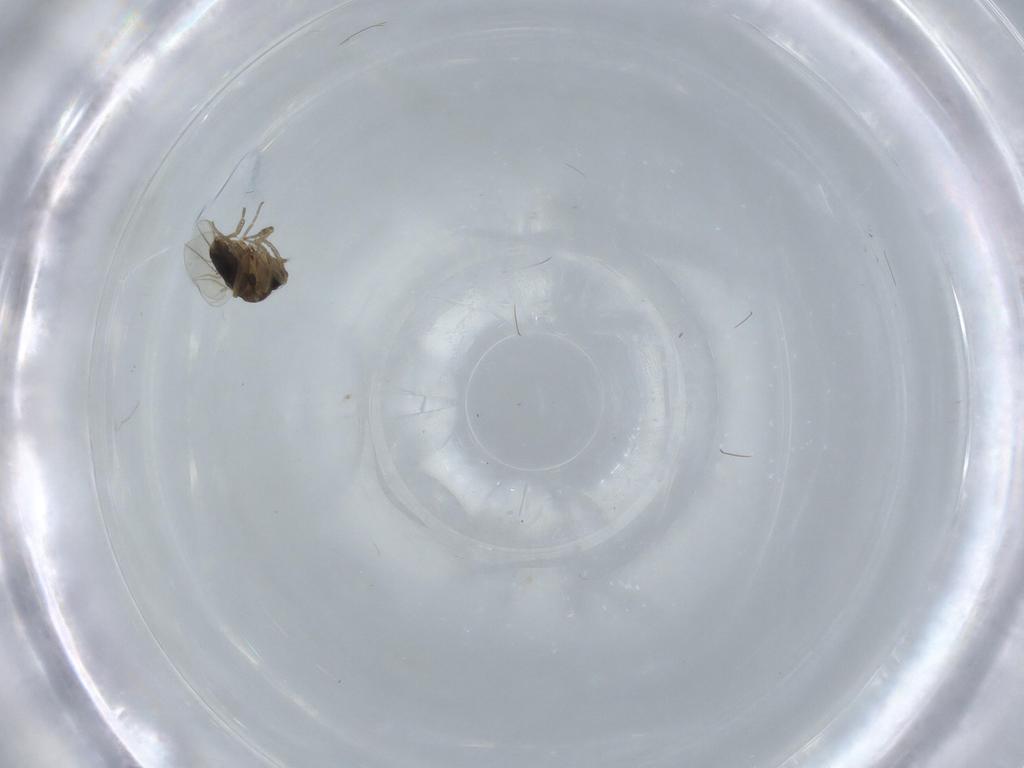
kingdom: Animalia
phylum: Arthropoda
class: Insecta
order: Diptera
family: Phoridae
